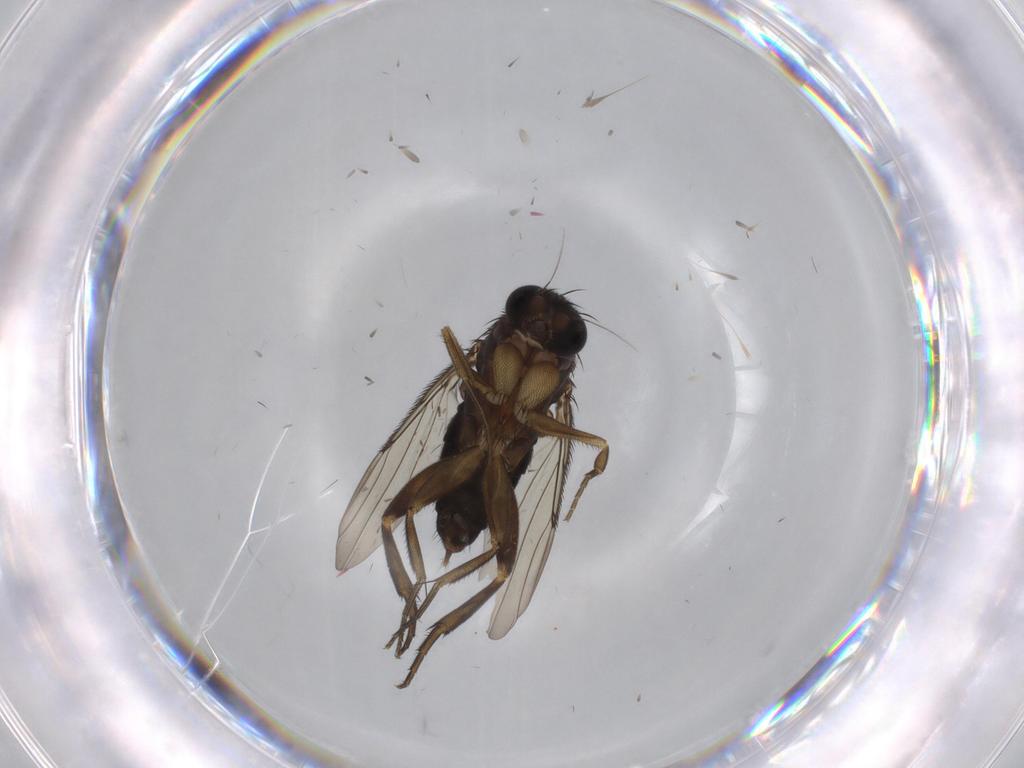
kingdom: Animalia
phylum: Arthropoda
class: Insecta
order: Diptera
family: Phoridae
